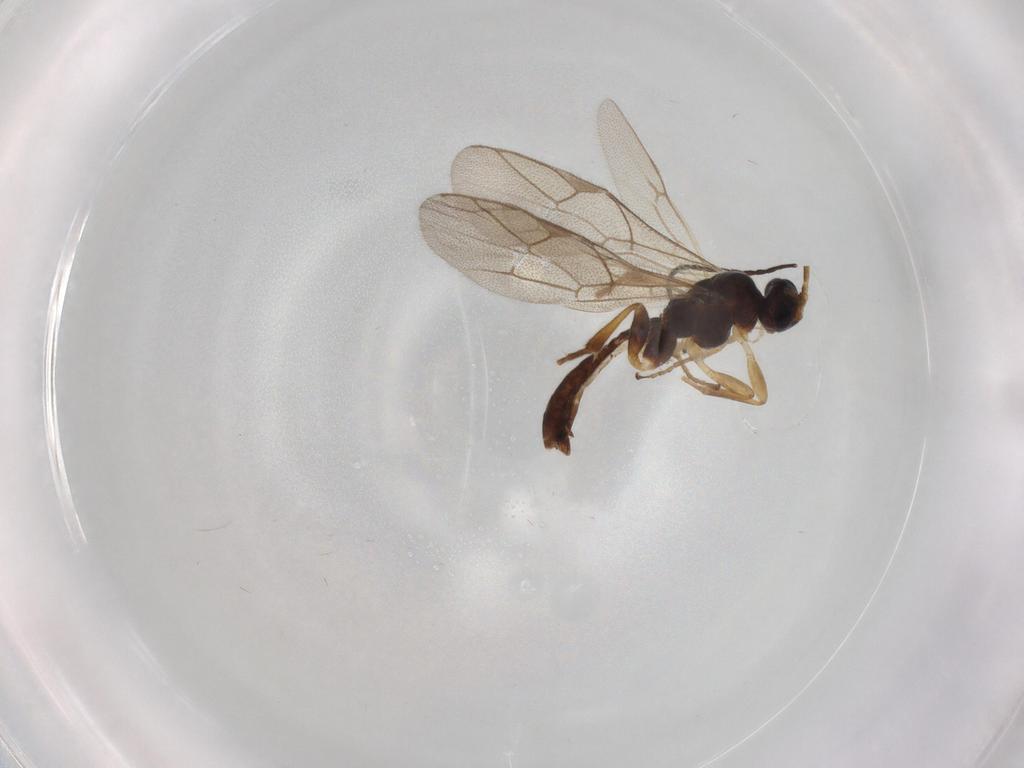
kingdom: Animalia
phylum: Arthropoda
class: Insecta
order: Hymenoptera
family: Ichneumonidae
